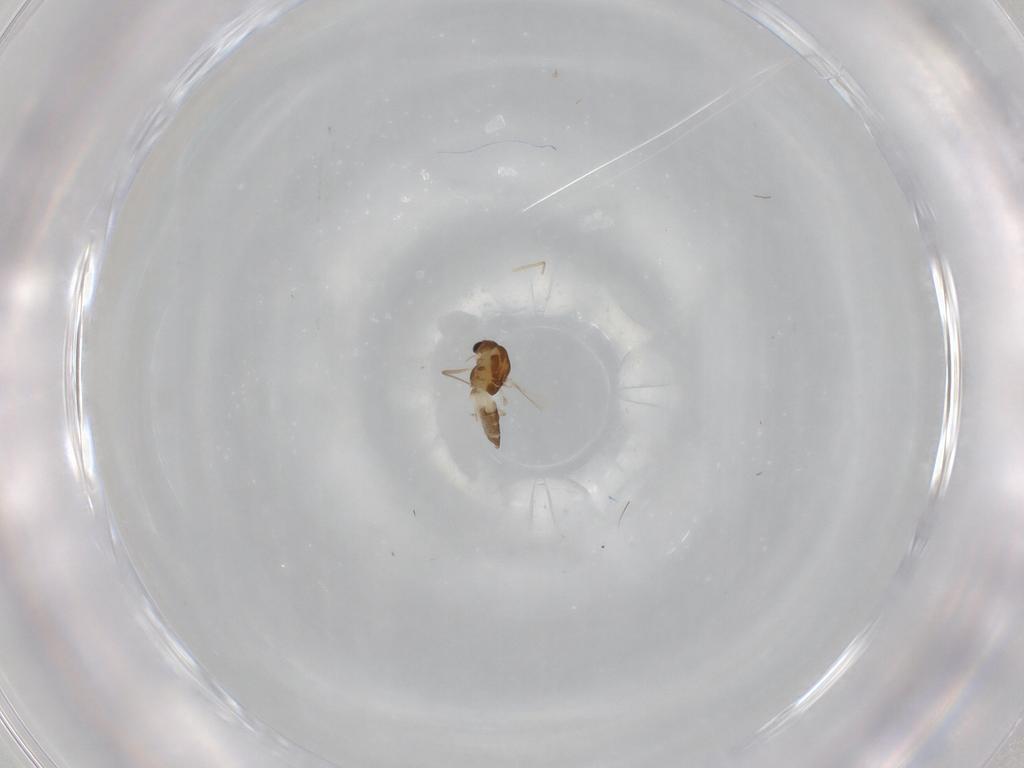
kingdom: Animalia
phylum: Arthropoda
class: Insecta
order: Diptera
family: Chironomidae
